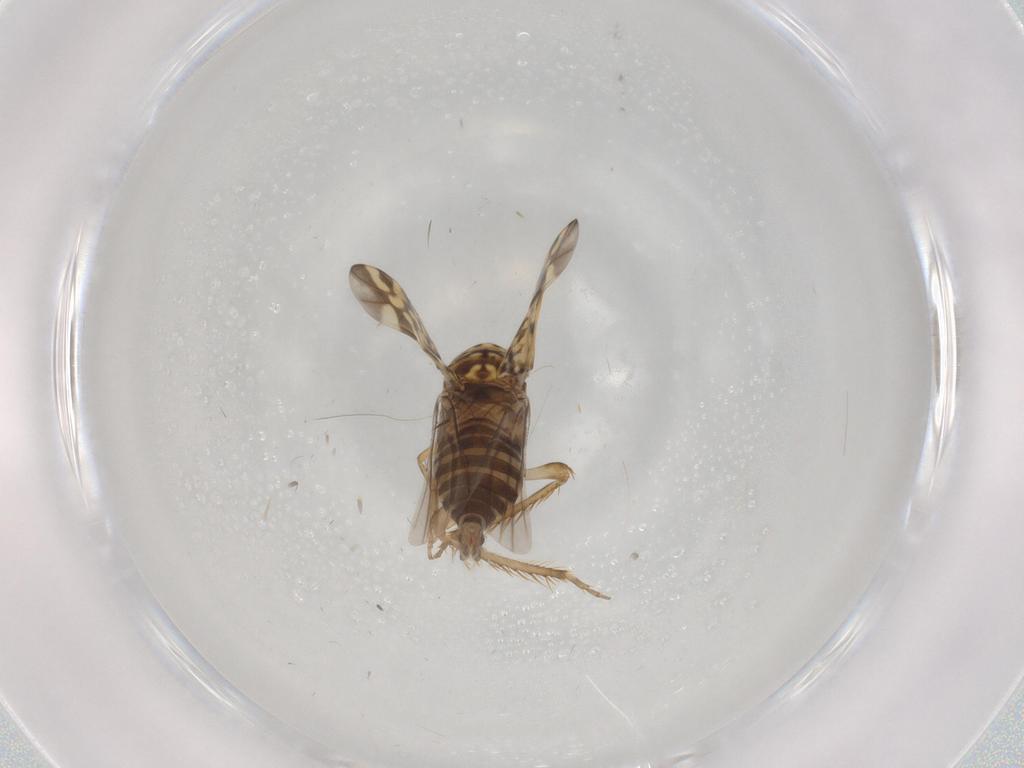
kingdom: Animalia
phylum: Arthropoda
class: Insecta
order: Hemiptera
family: Cicadellidae
